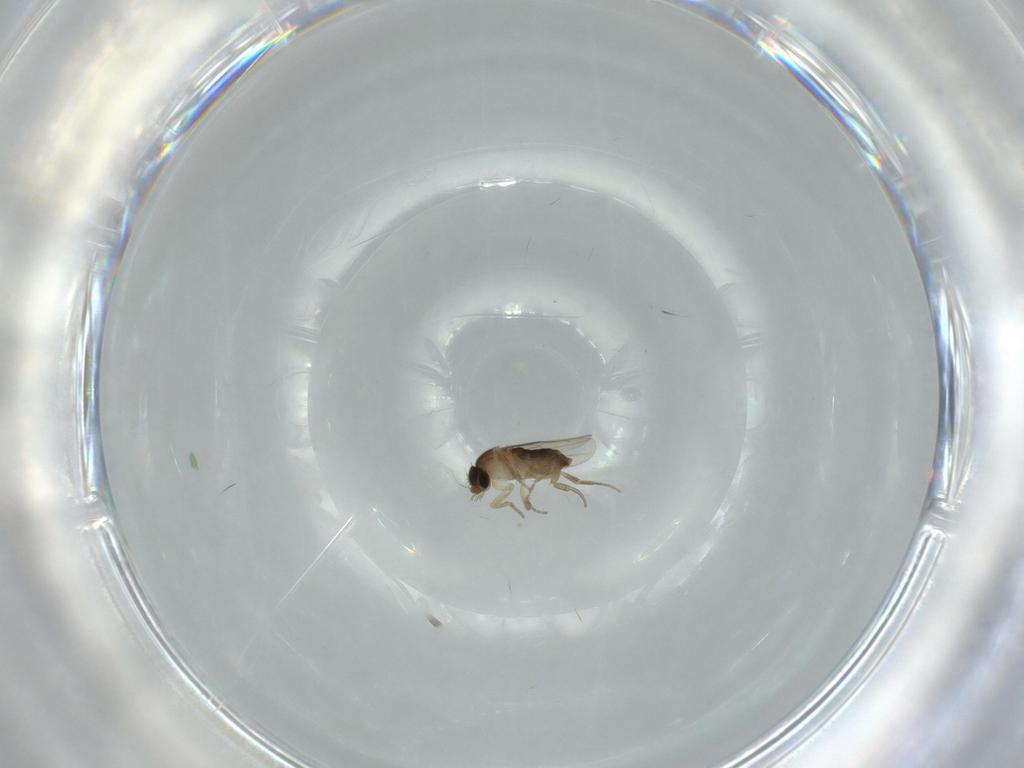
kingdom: Animalia
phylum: Arthropoda
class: Insecta
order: Diptera
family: Phoridae
